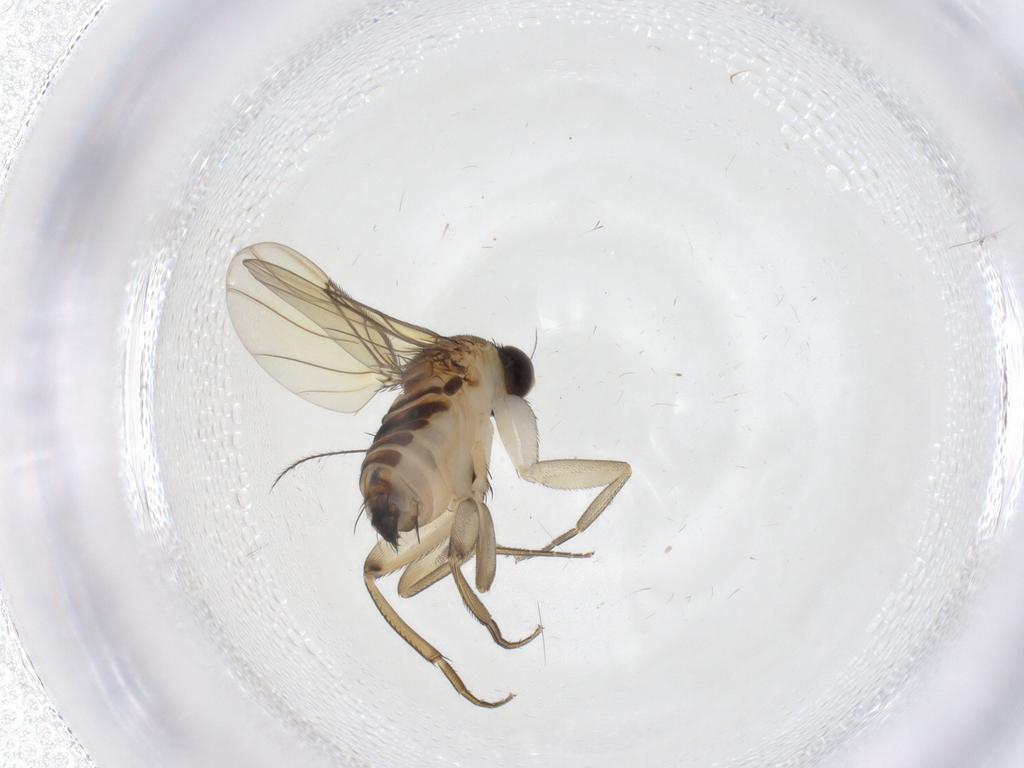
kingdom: Animalia
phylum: Arthropoda
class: Insecta
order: Diptera
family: Phoridae
